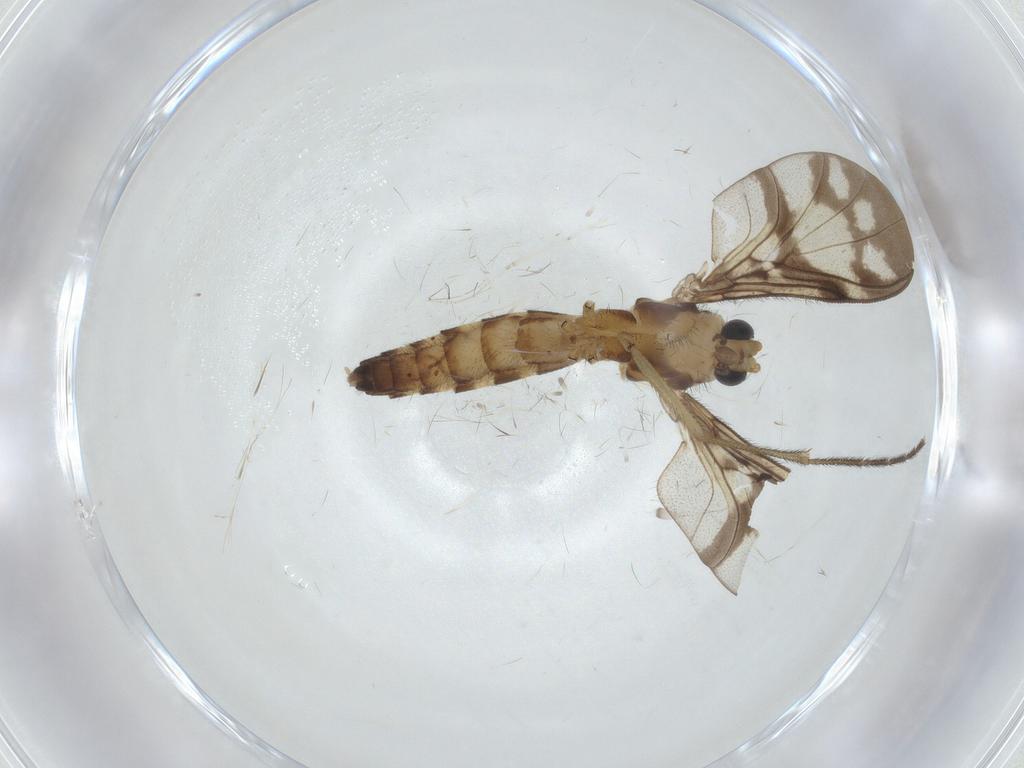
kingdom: Animalia
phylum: Arthropoda
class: Insecta
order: Diptera
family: Keroplatidae
